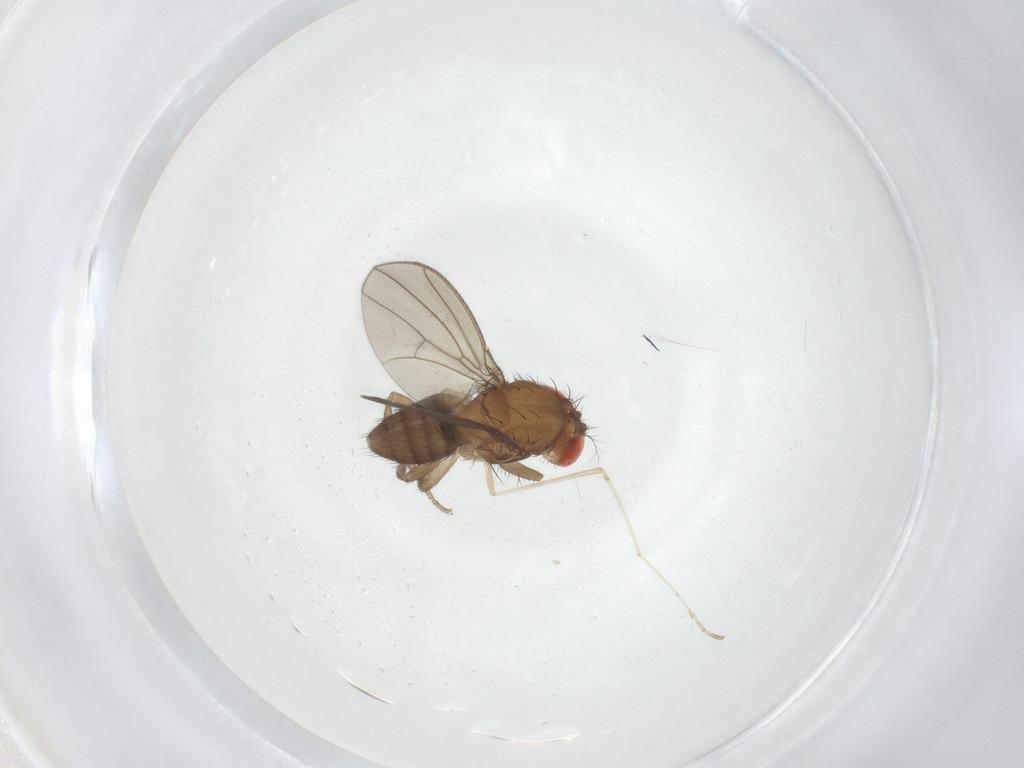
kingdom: Animalia
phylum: Arthropoda
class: Insecta
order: Diptera
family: Drosophilidae
